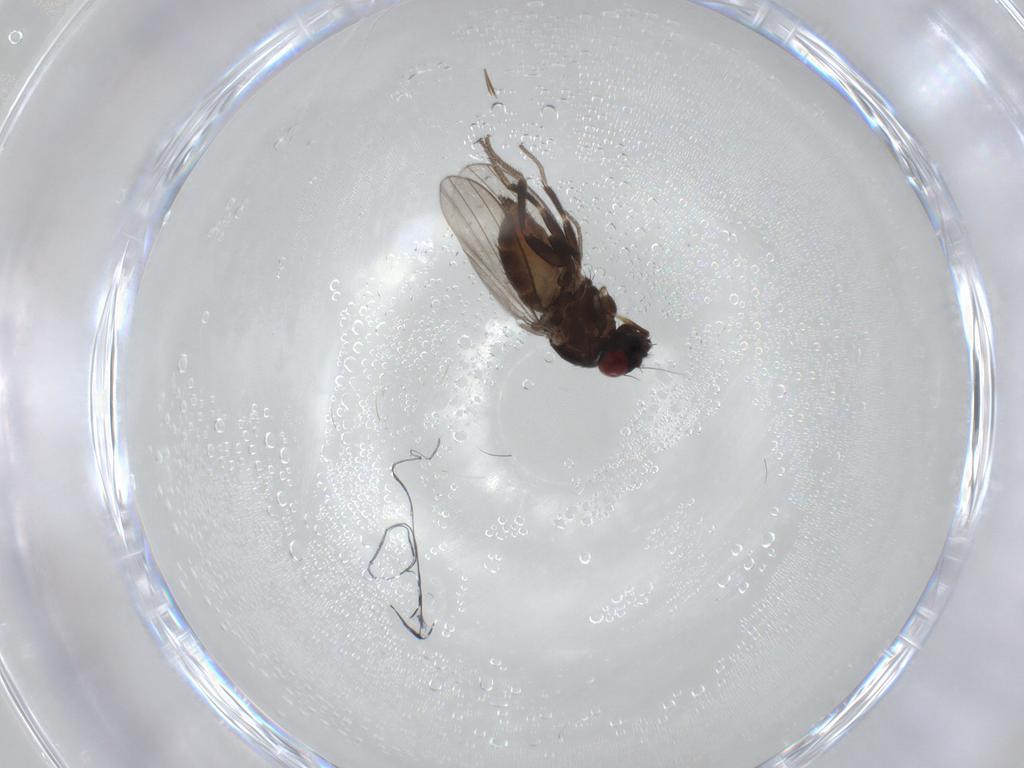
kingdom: Animalia
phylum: Arthropoda
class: Insecta
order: Diptera
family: Milichiidae
